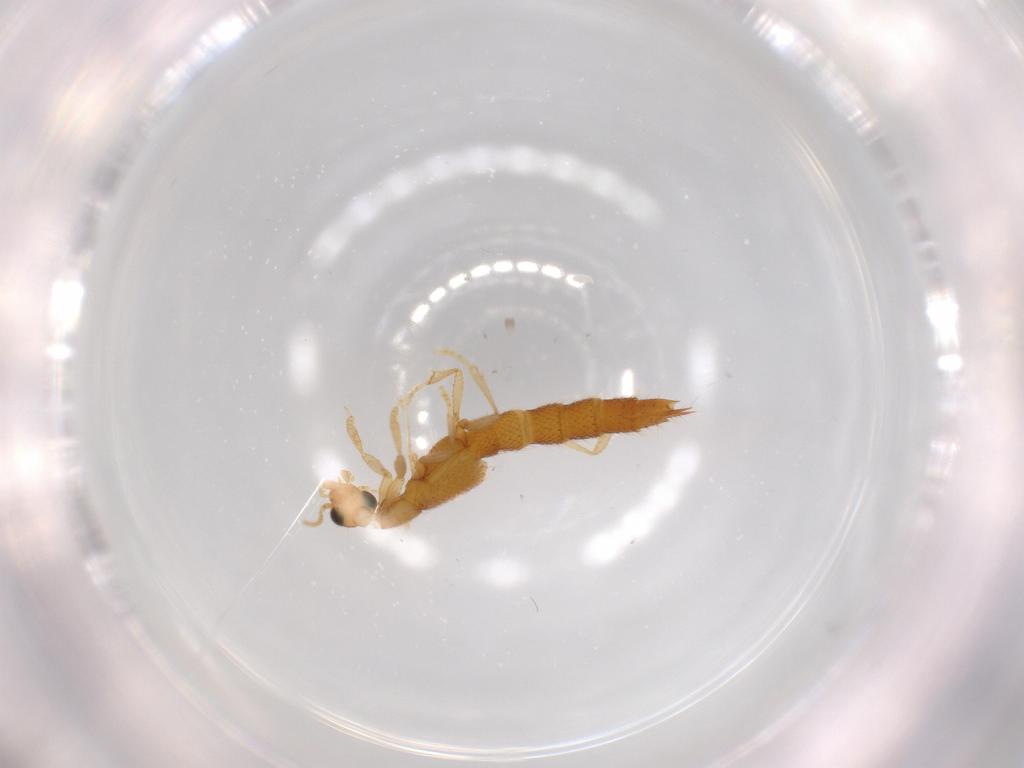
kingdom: Animalia
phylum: Arthropoda
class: Insecta
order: Coleoptera
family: Staphylinidae
